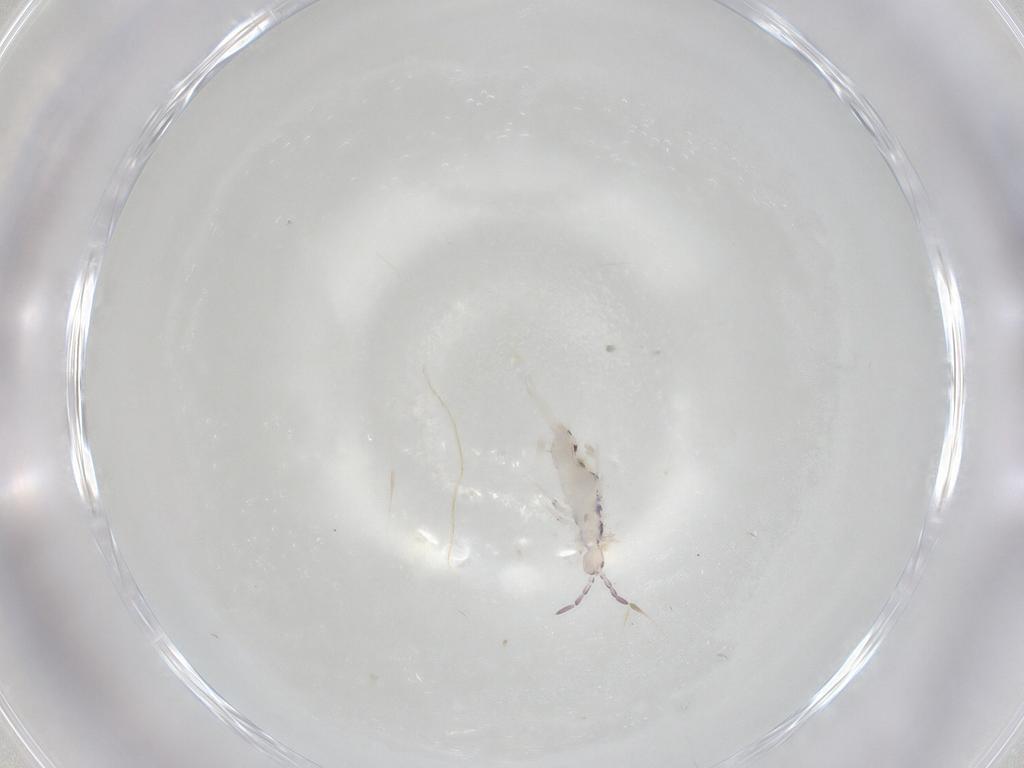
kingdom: Animalia
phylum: Arthropoda
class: Collembola
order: Entomobryomorpha
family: Entomobryidae
